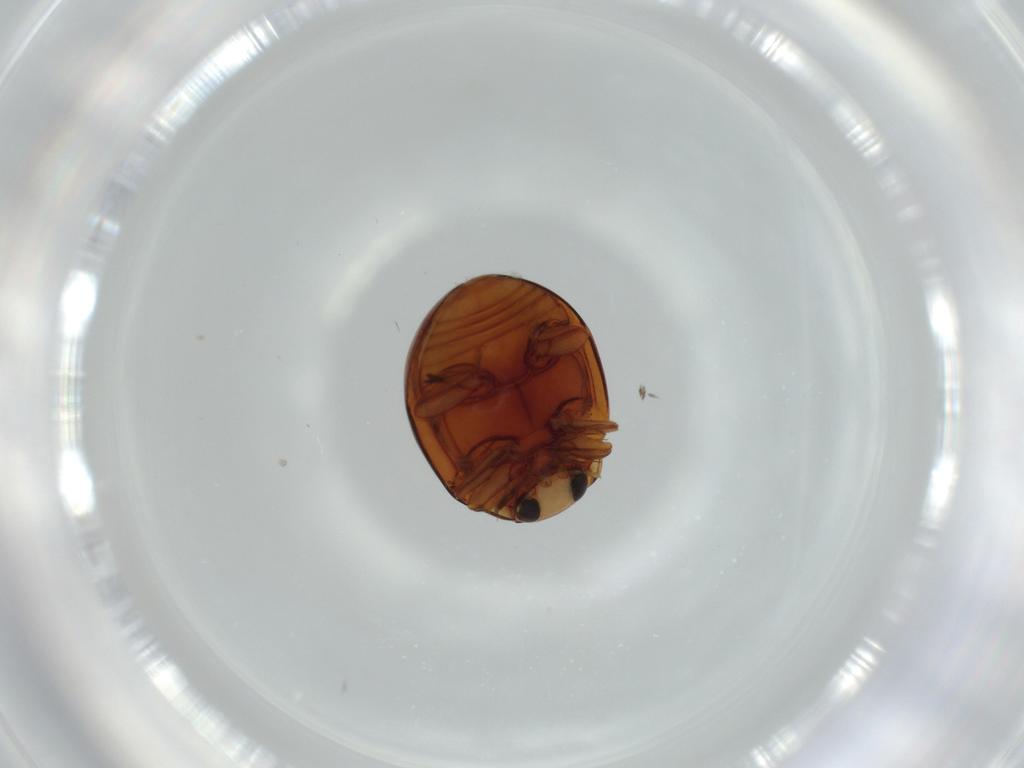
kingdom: Animalia
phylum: Arthropoda
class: Insecta
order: Coleoptera
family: Coccinellidae
